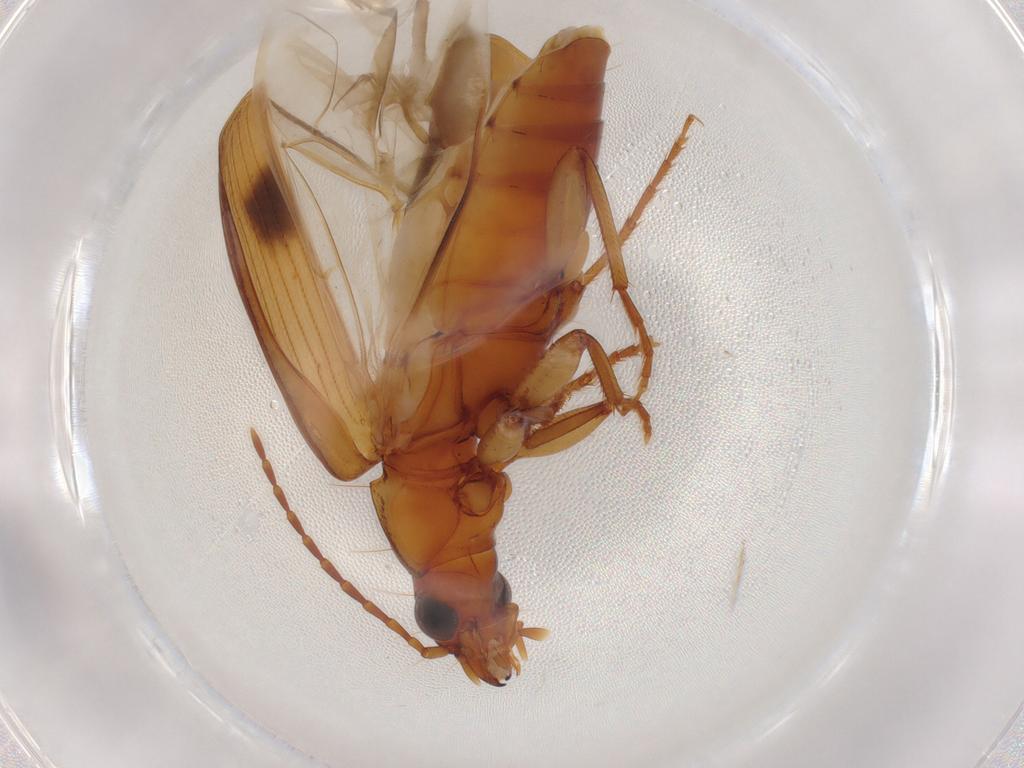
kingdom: Animalia
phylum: Arthropoda
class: Insecta
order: Coleoptera
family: Carabidae
